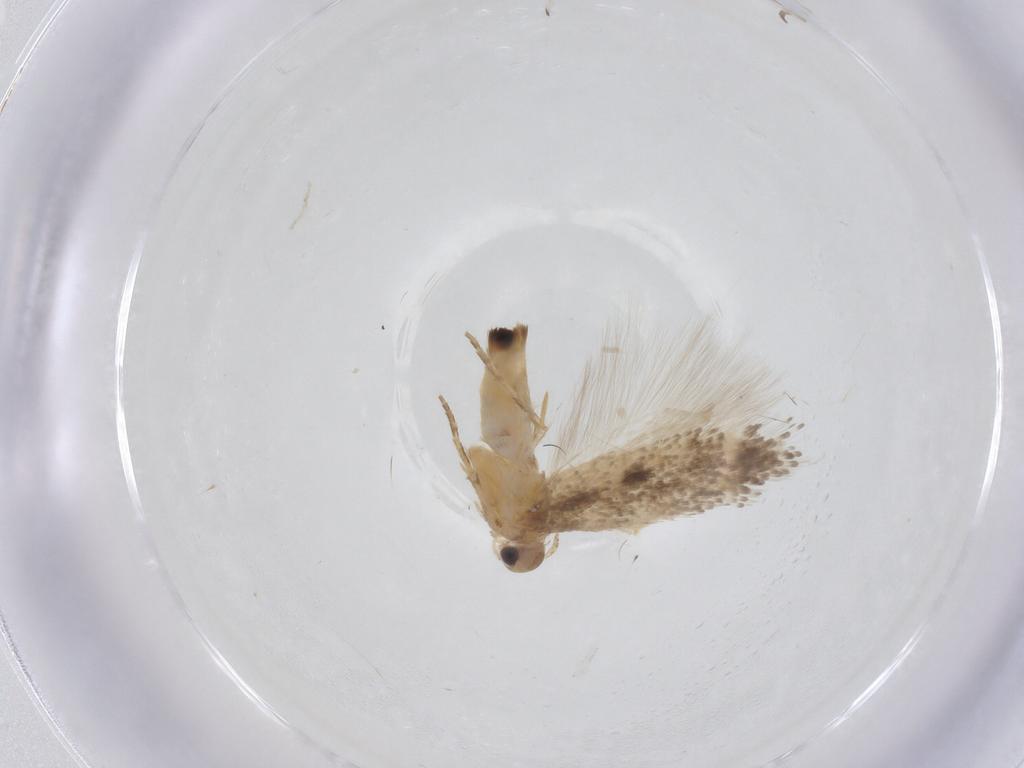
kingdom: Animalia
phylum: Arthropoda
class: Insecta
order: Lepidoptera
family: Gelechiidae
